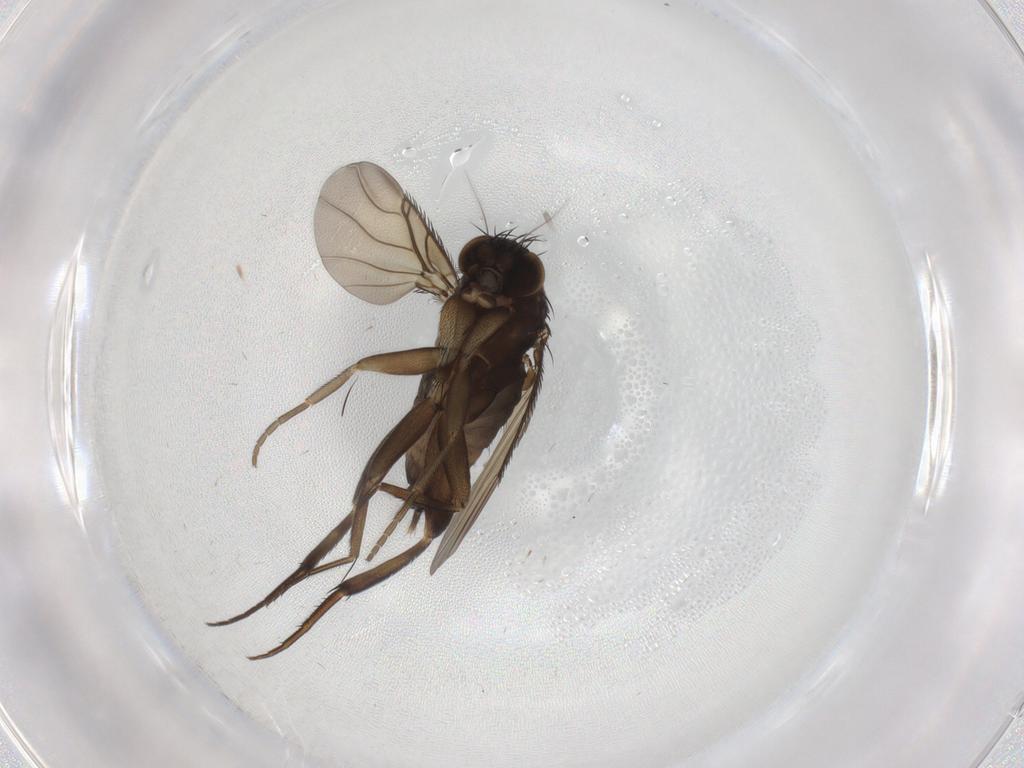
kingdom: Animalia
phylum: Arthropoda
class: Insecta
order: Diptera
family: Phoridae
